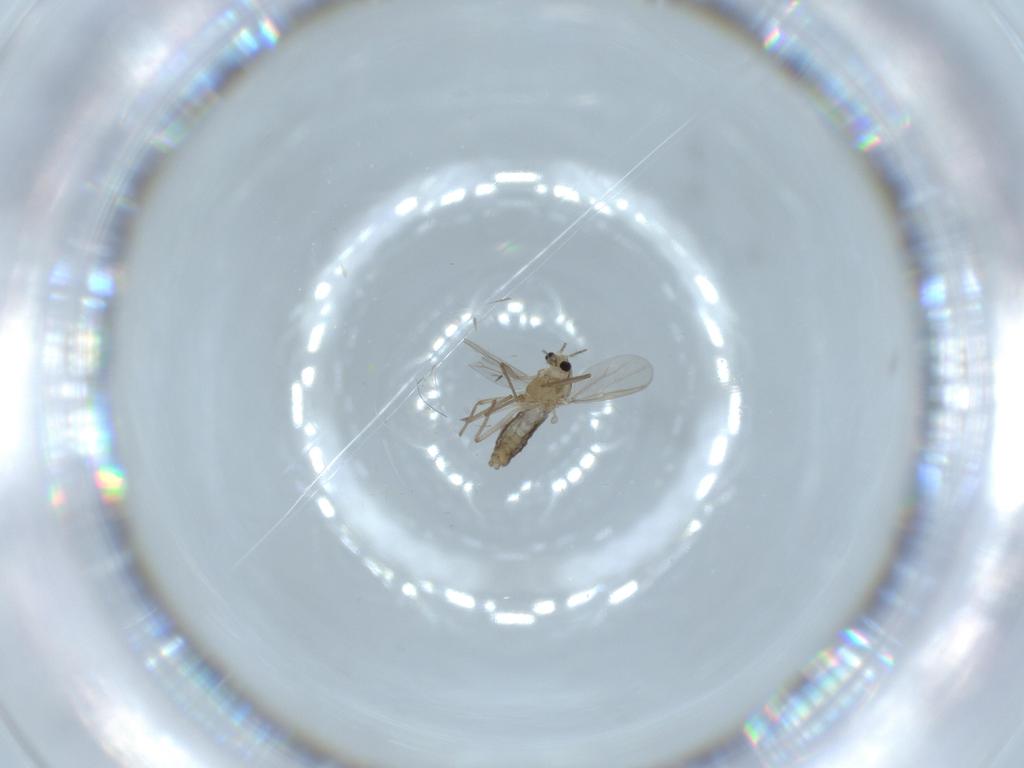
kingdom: Animalia
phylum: Arthropoda
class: Insecta
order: Diptera
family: Chironomidae
